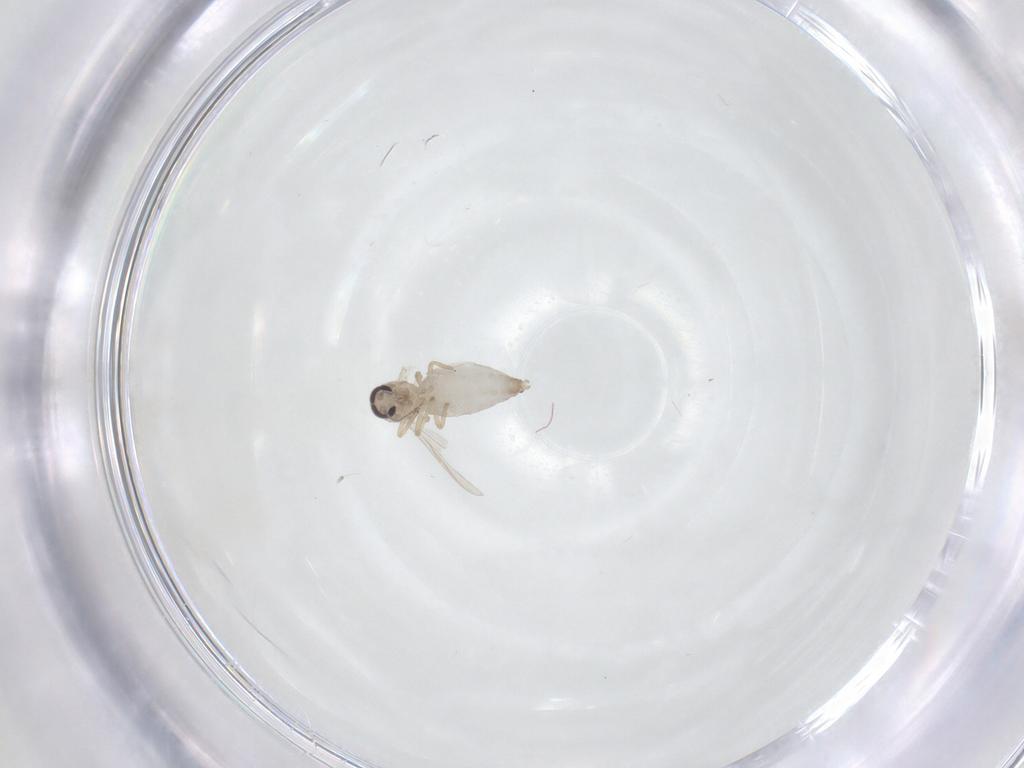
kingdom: Animalia
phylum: Arthropoda
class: Insecta
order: Diptera
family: Ceratopogonidae
